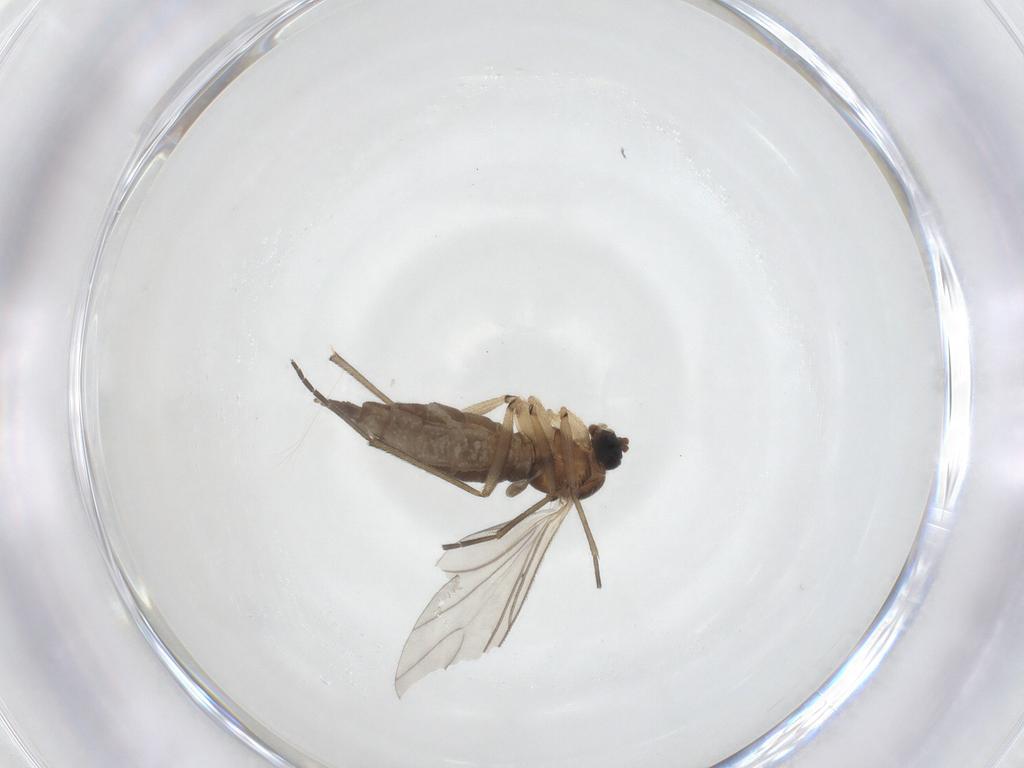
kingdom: Animalia
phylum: Arthropoda
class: Insecta
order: Diptera
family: Sciaridae
